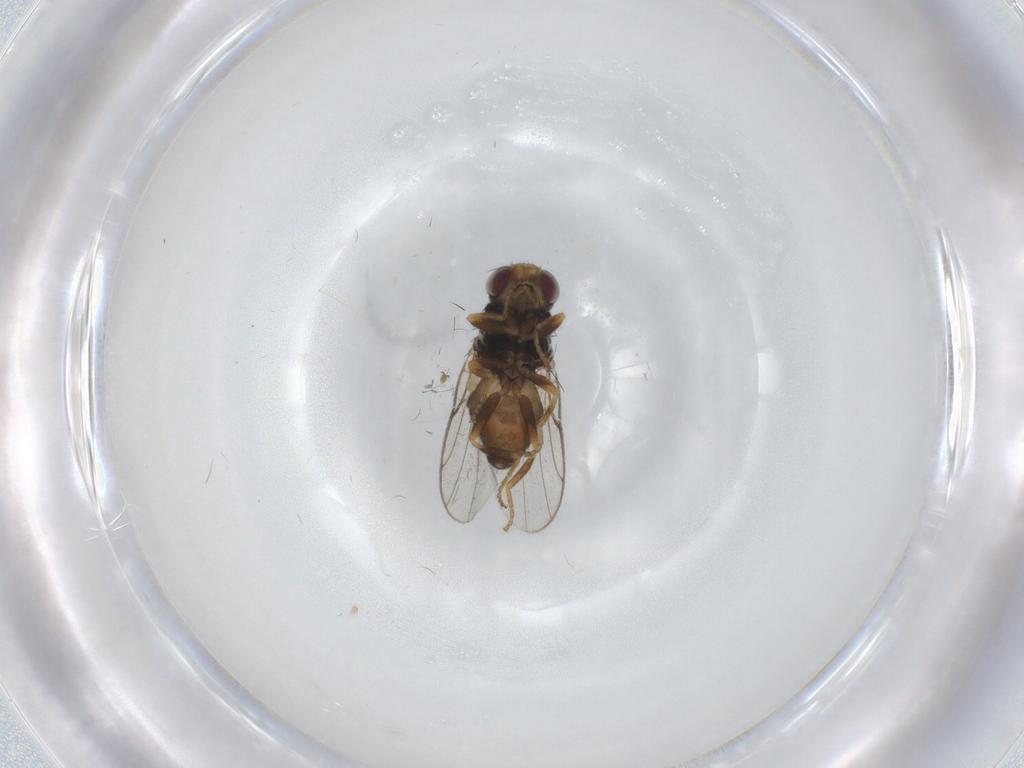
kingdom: Animalia
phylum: Arthropoda
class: Insecta
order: Diptera
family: Chloropidae
